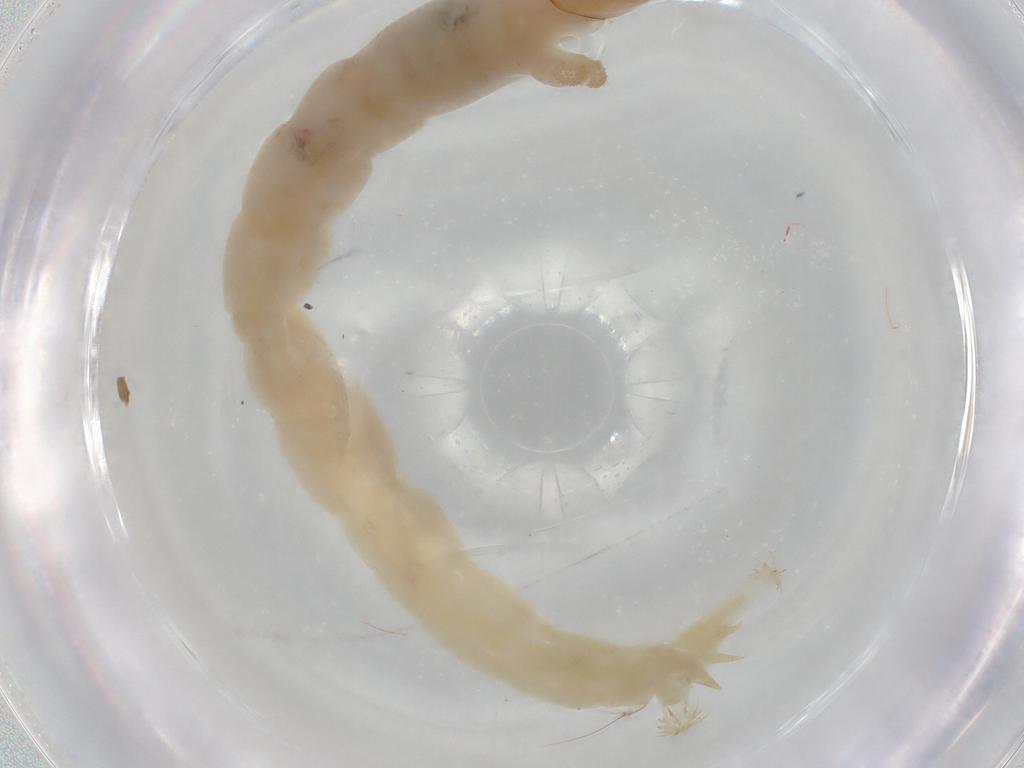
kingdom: Animalia
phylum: Arthropoda
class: Insecta
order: Diptera
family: Chironomidae
